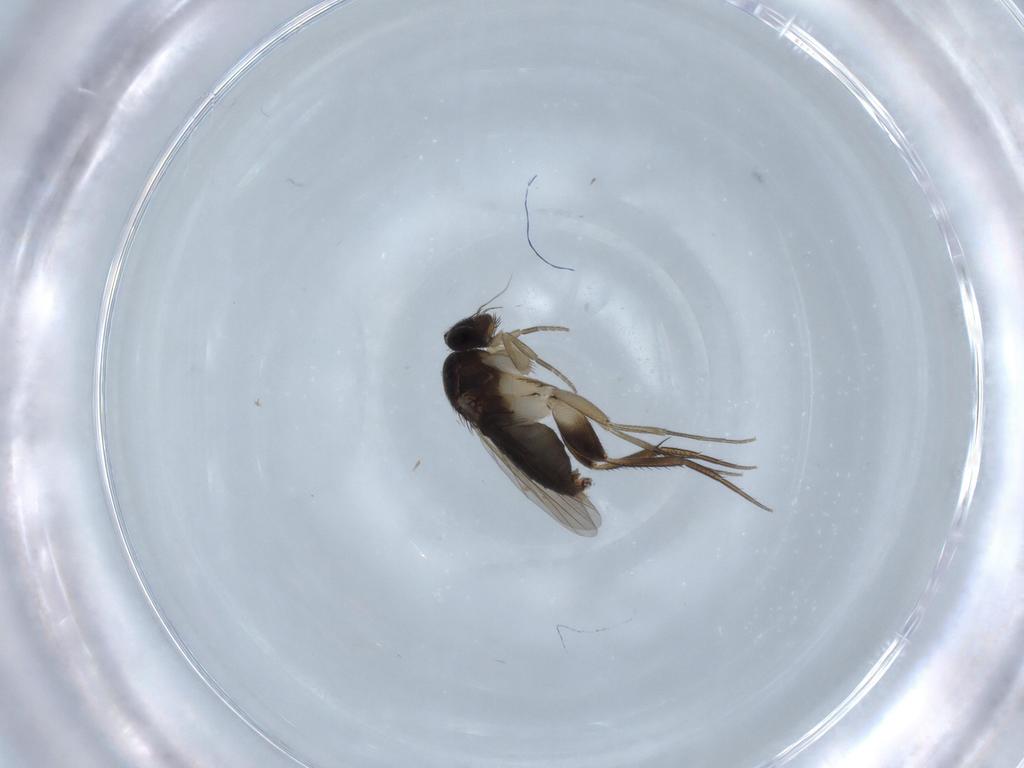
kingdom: Animalia
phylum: Arthropoda
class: Insecta
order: Diptera
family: Phoridae
